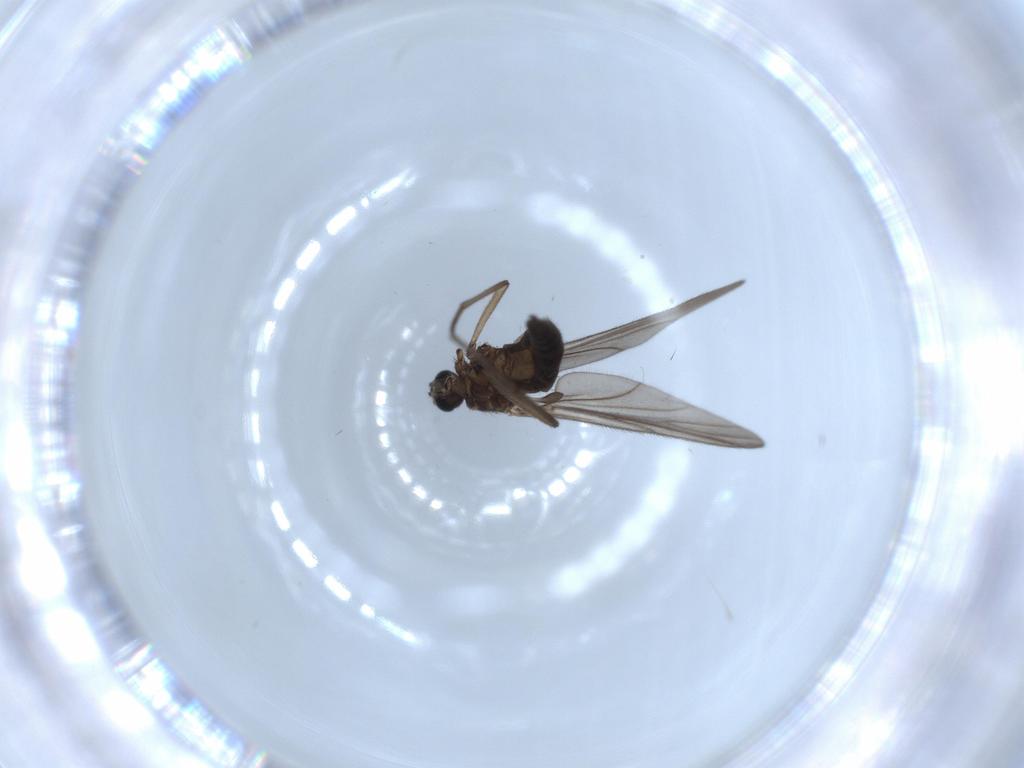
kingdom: Animalia
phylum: Arthropoda
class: Insecta
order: Diptera
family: Sciaridae
